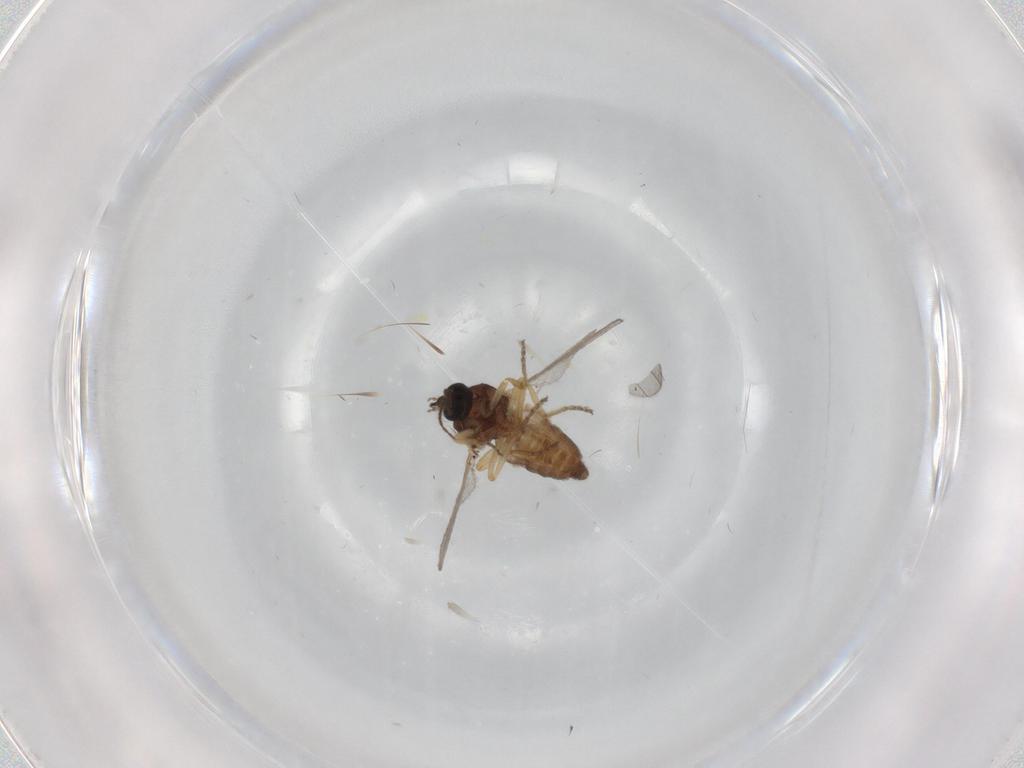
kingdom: Animalia
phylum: Arthropoda
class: Insecta
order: Diptera
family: Ceratopogonidae
